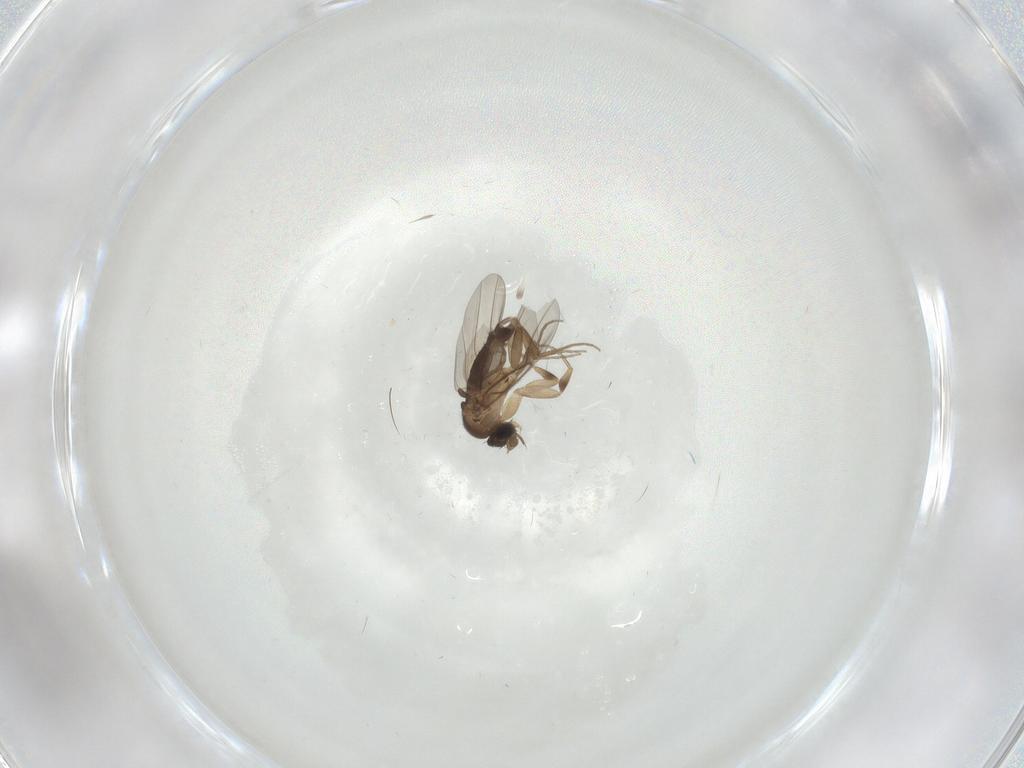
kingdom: Animalia
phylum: Arthropoda
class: Insecta
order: Diptera
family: Phoridae
